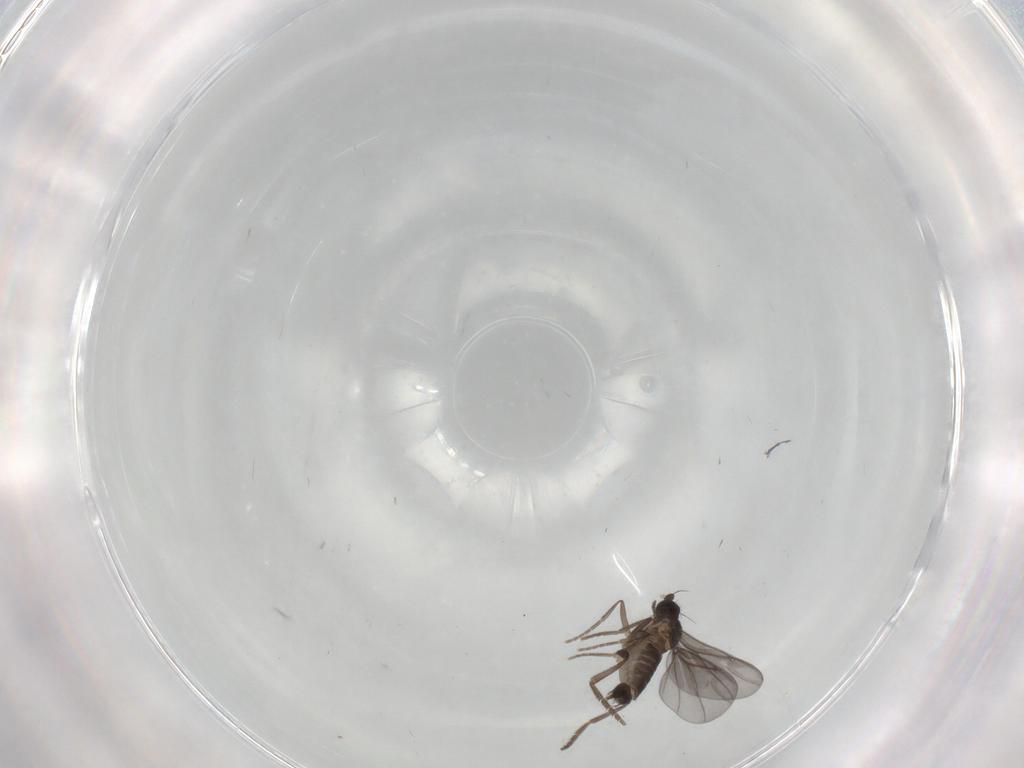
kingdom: Animalia
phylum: Arthropoda
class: Insecta
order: Diptera
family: Phoridae
